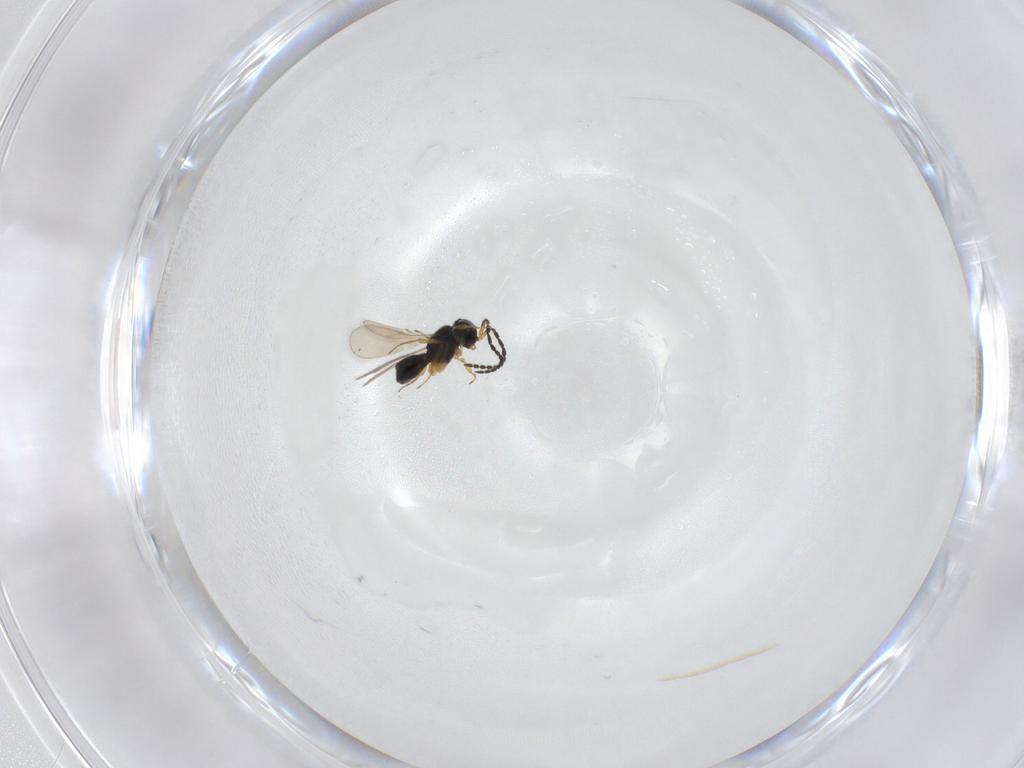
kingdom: Animalia
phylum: Arthropoda
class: Insecta
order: Hymenoptera
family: Scelionidae
